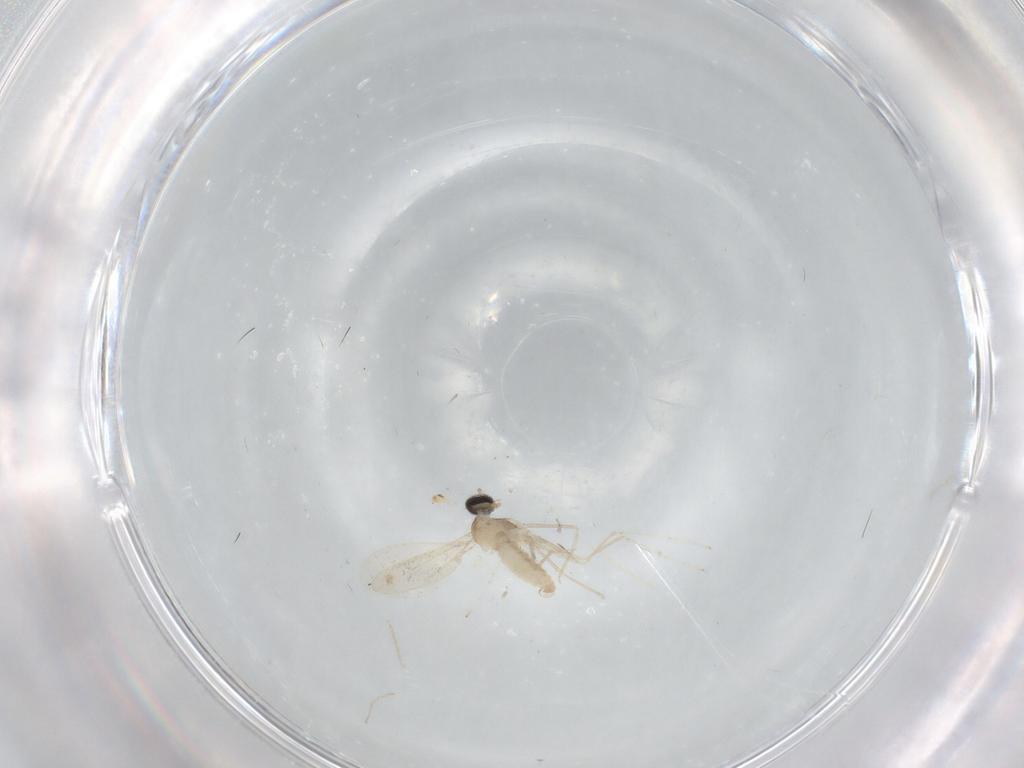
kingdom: Animalia
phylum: Arthropoda
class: Insecta
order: Diptera
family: Cecidomyiidae
